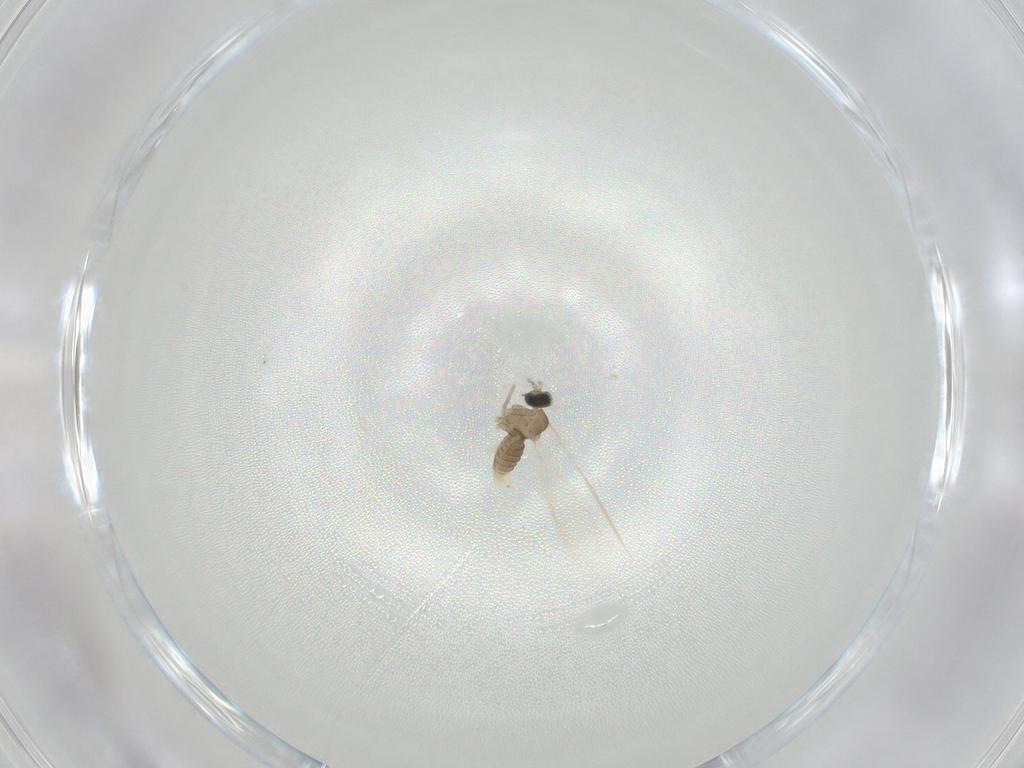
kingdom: Animalia
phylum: Arthropoda
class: Insecta
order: Diptera
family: Cecidomyiidae
